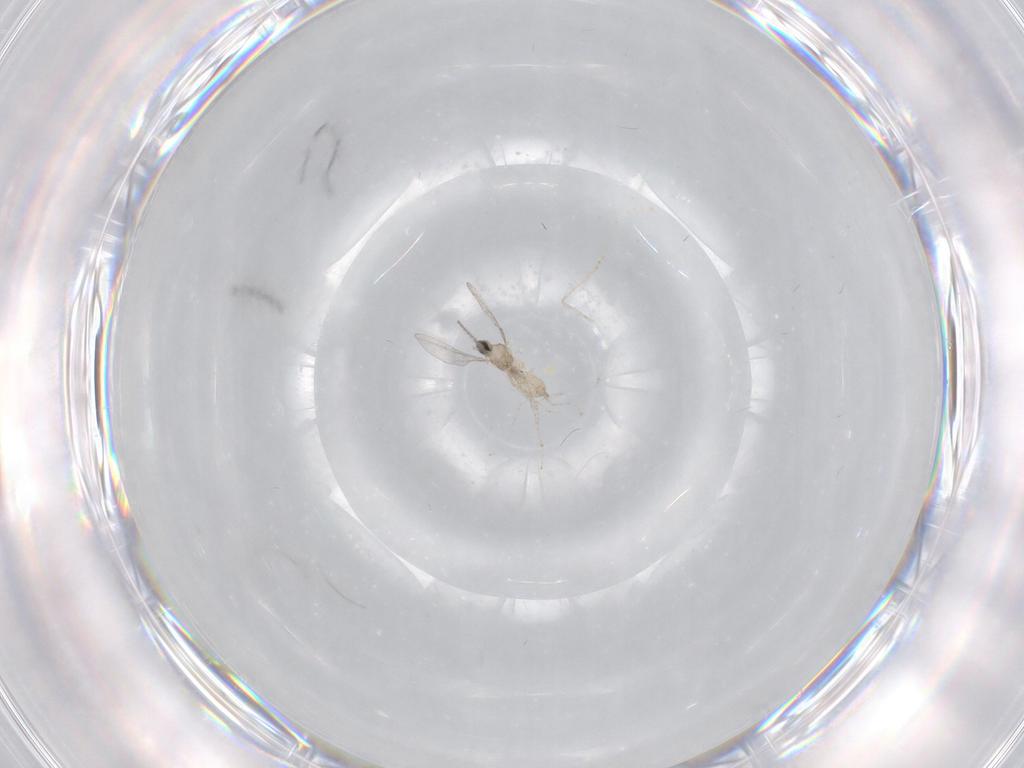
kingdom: Animalia
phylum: Arthropoda
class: Insecta
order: Diptera
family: Cecidomyiidae
